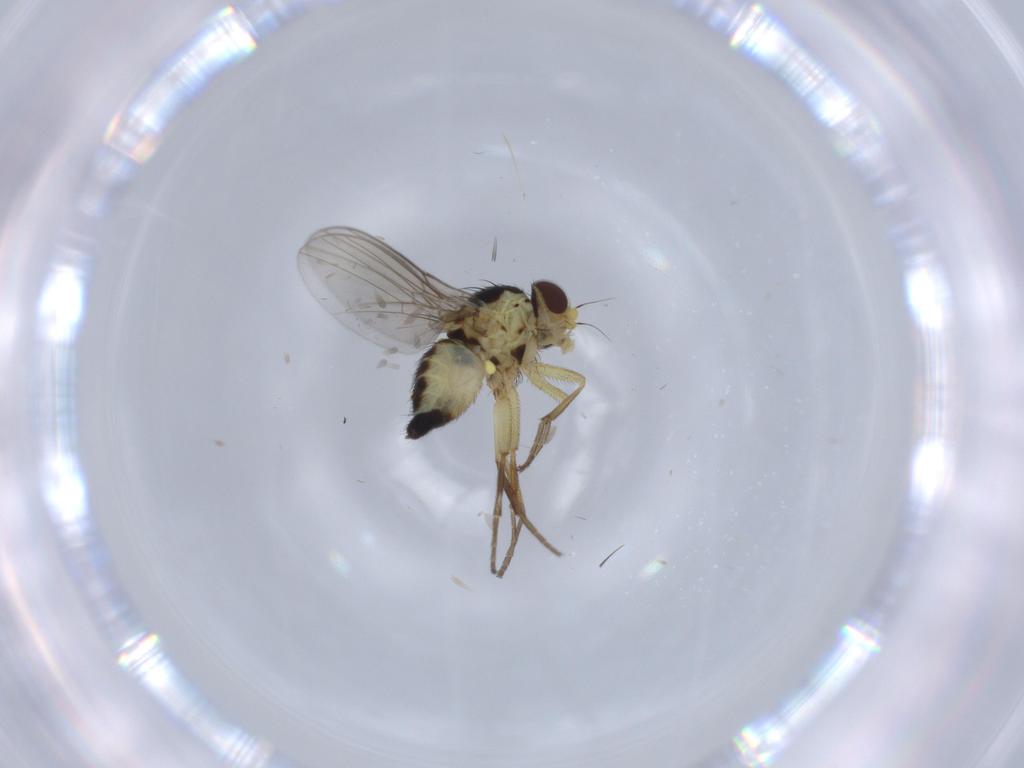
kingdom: Animalia
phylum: Arthropoda
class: Insecta
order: Diptera
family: Agromyzidae
